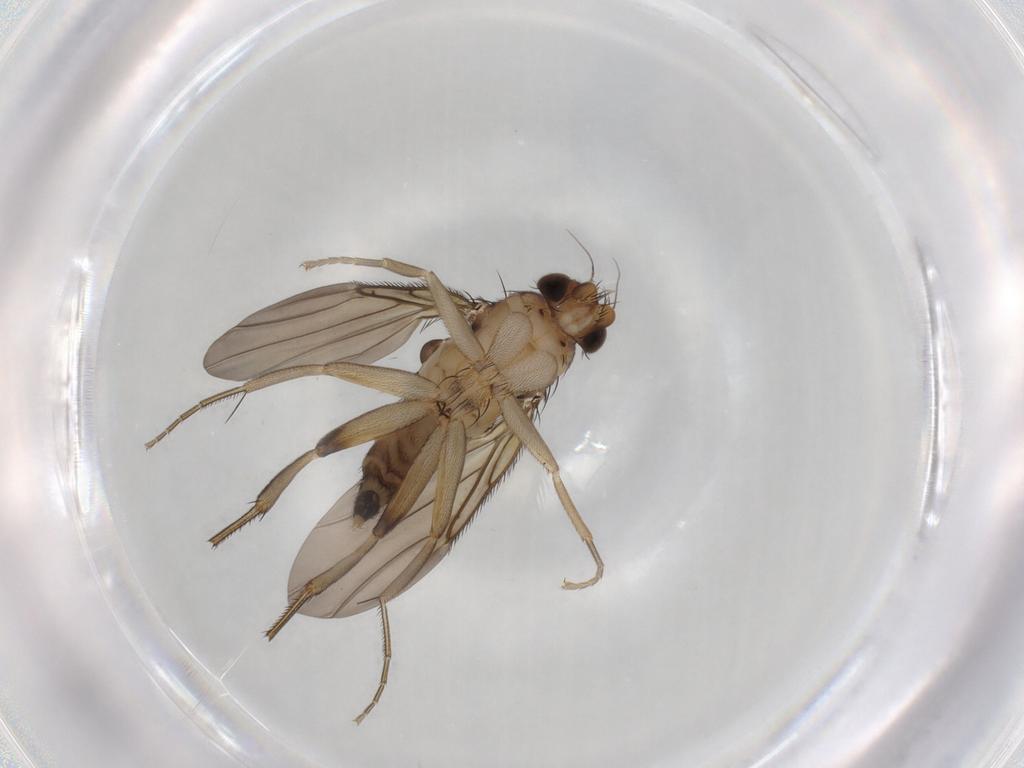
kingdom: Animalia
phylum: Arthropoda
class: Insecta
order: Diptera
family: Phoridae
